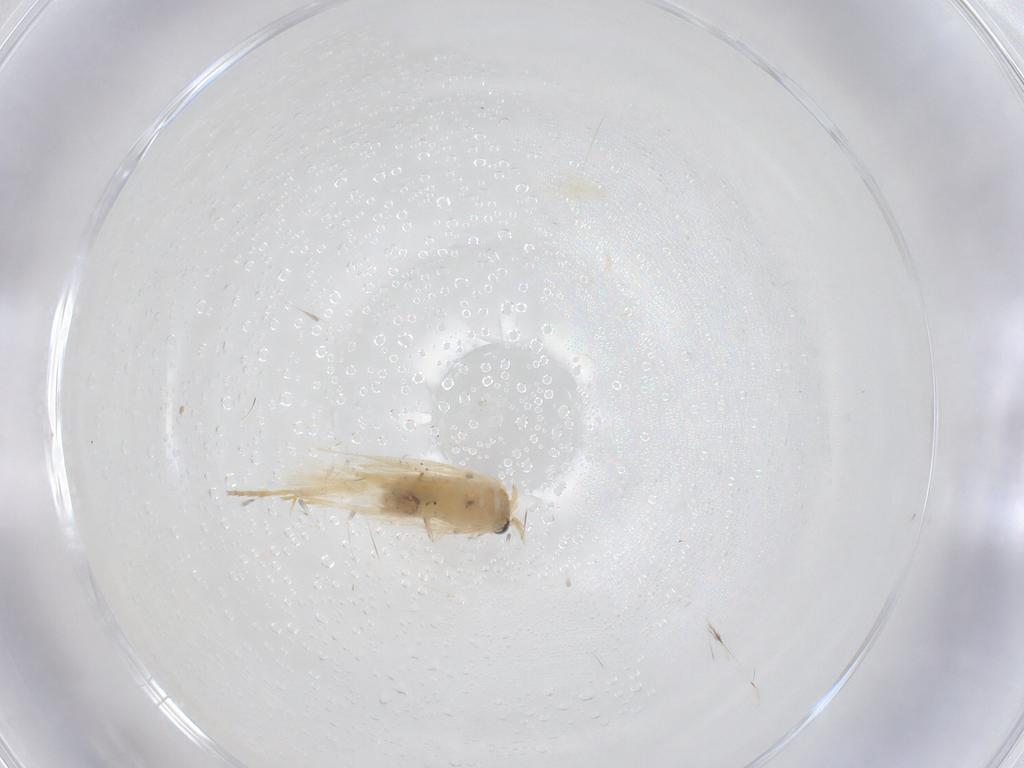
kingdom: Animalia
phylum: Arthropoda
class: Insecta
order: Lepidoptera
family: Nepticulidae
